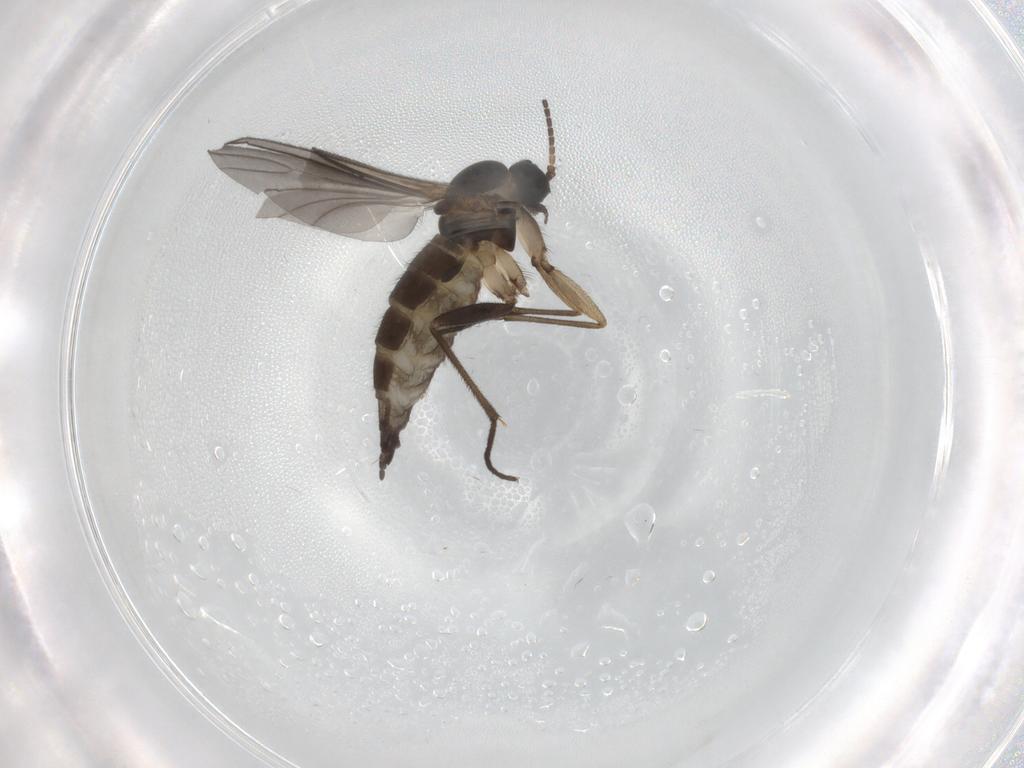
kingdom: Animalia
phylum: Arthropoda
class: Insecta
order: Diptera
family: Sciaridae
